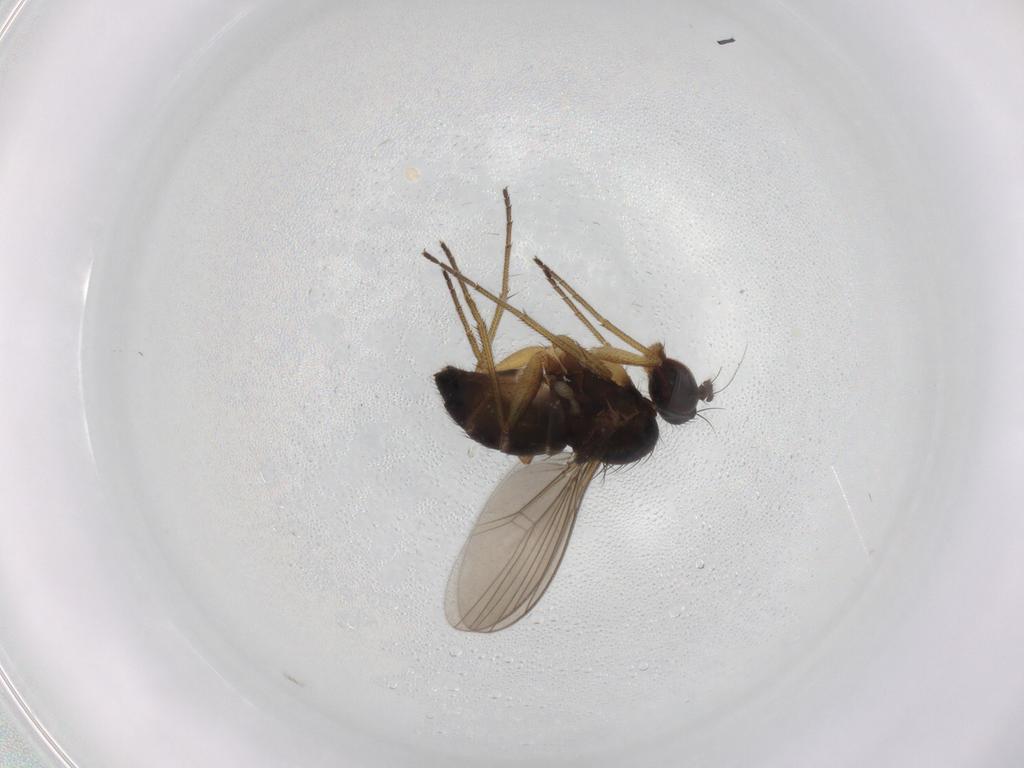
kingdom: Animalia
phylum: Arthropoda
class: Insecta
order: Diptera
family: Dolichopodidae
